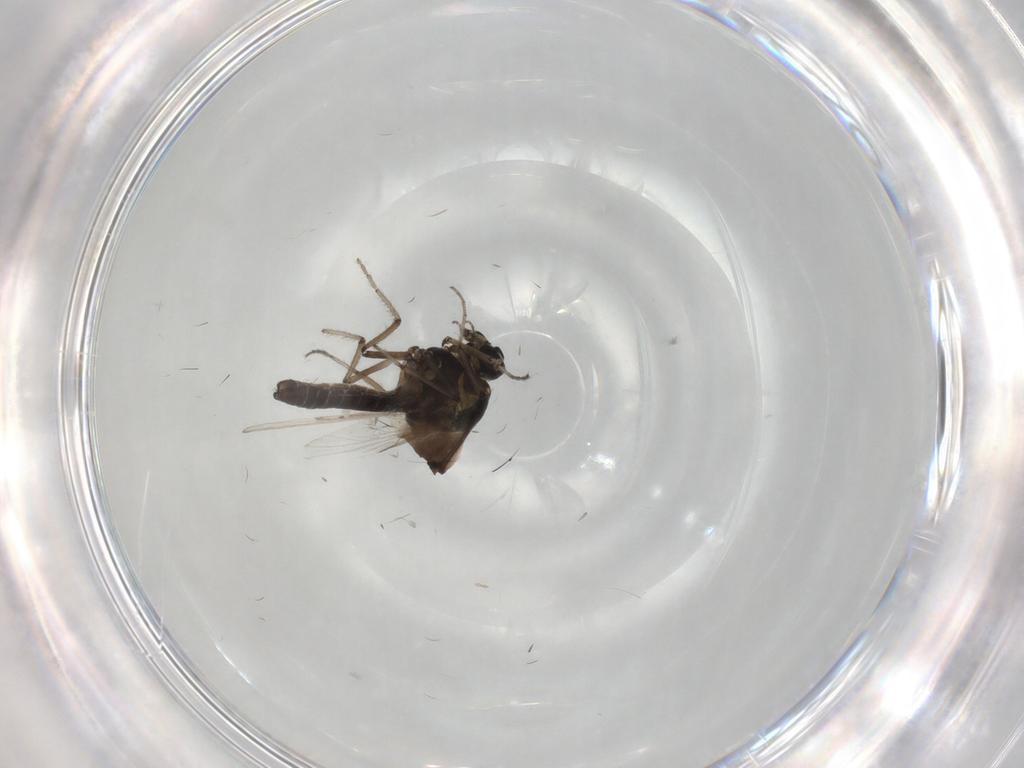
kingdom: Animalia
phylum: Arthropoda
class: Insecta
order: Diptera
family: Ceratopogonidae
